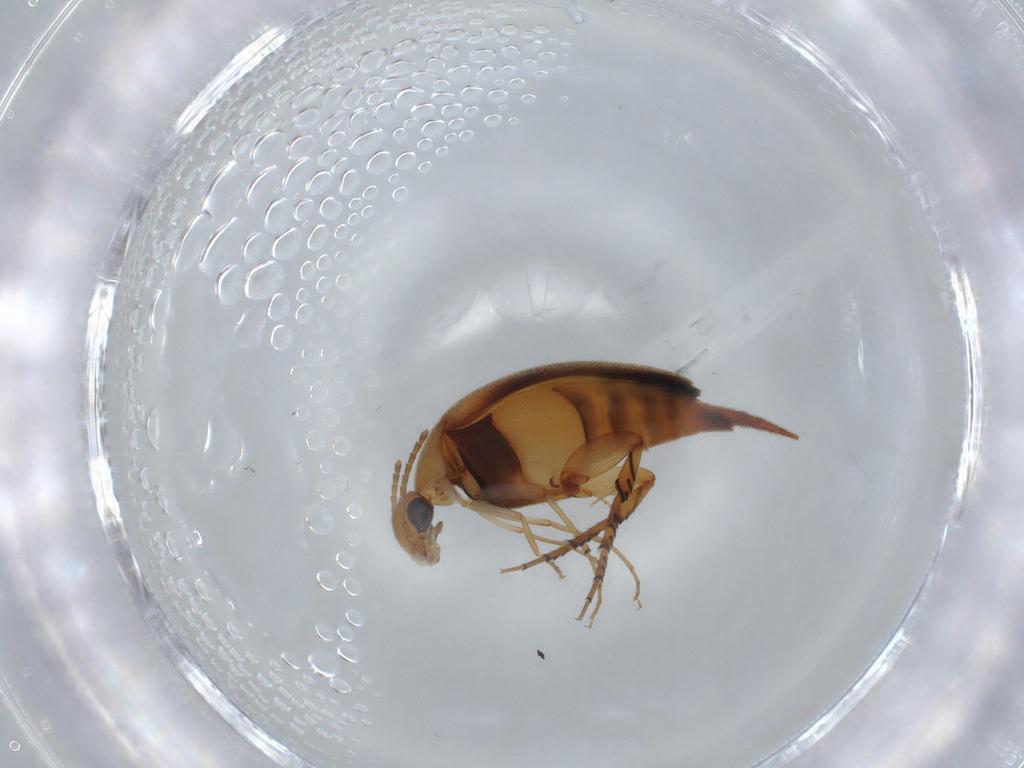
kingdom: Animalia
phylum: Arthropoda
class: Insecta
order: Coleoptera
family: Mordellidae
